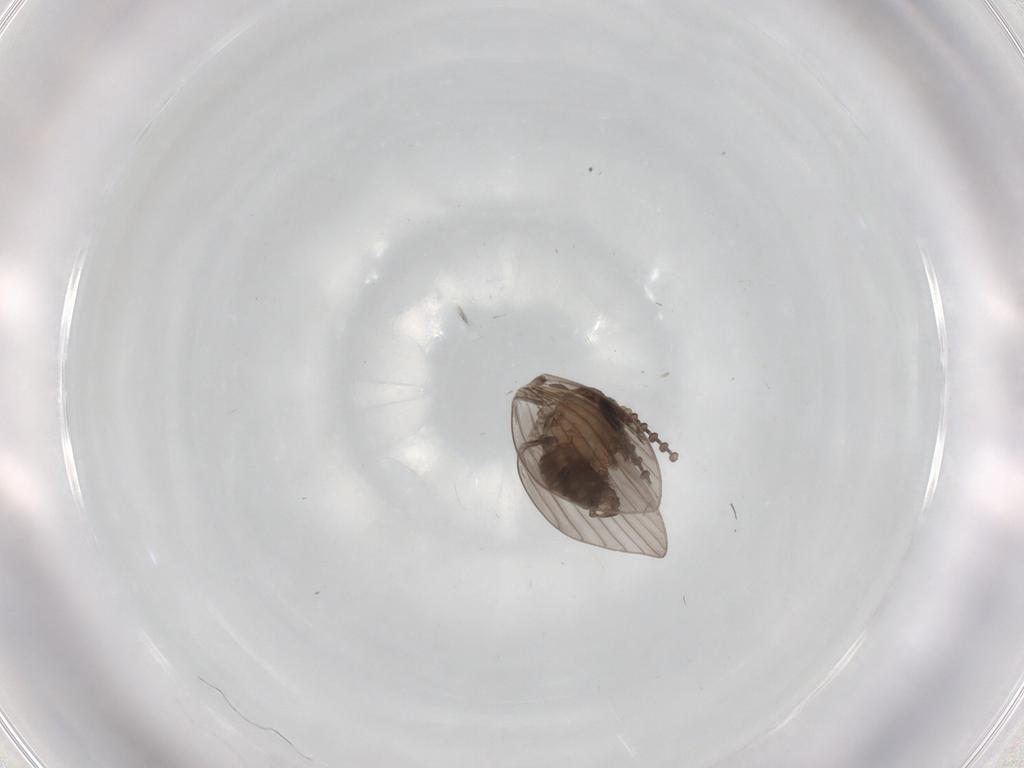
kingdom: Animalia
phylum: Arthropoda
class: Insecta
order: Diptera
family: Psychodidae
